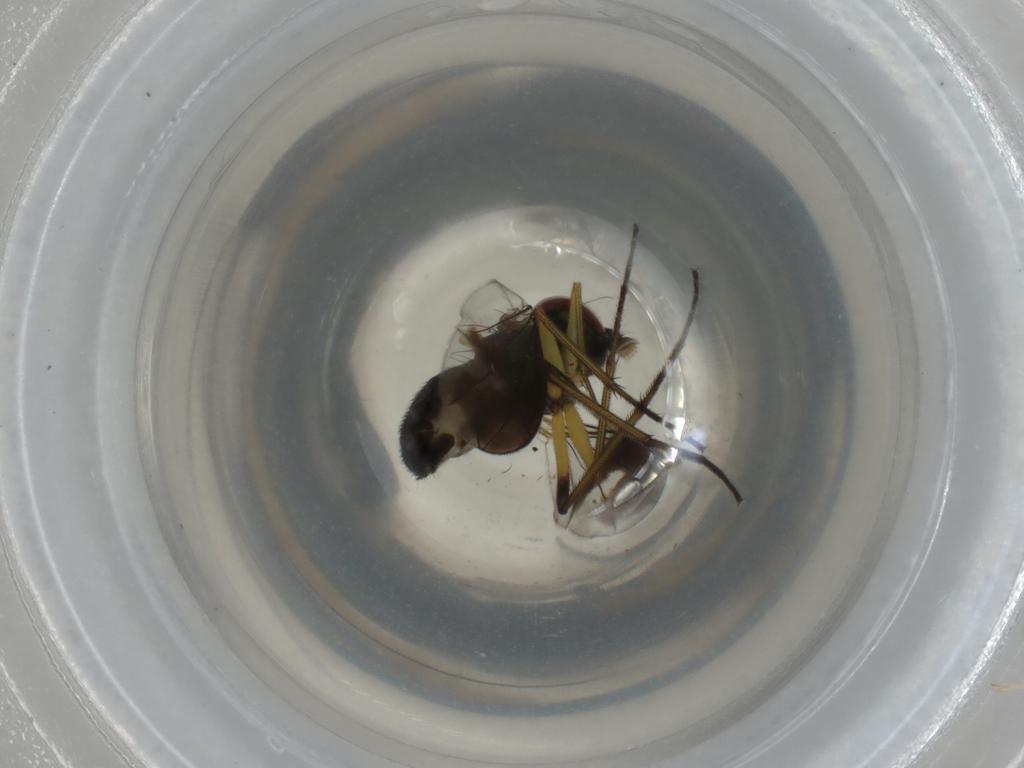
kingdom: Animalia
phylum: Arthropoda
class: Insecta
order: Diptera
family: Dolichopodidae
